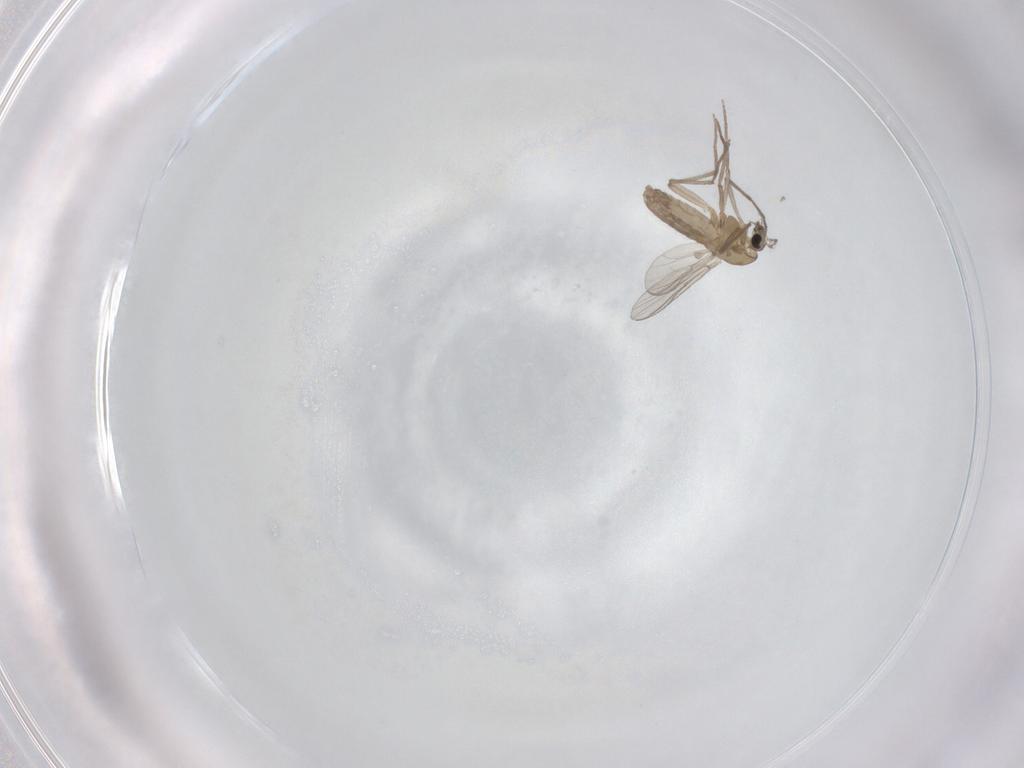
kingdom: Animalia
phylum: Arthropoda
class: Insecta
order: Diptera
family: Chironomidae
